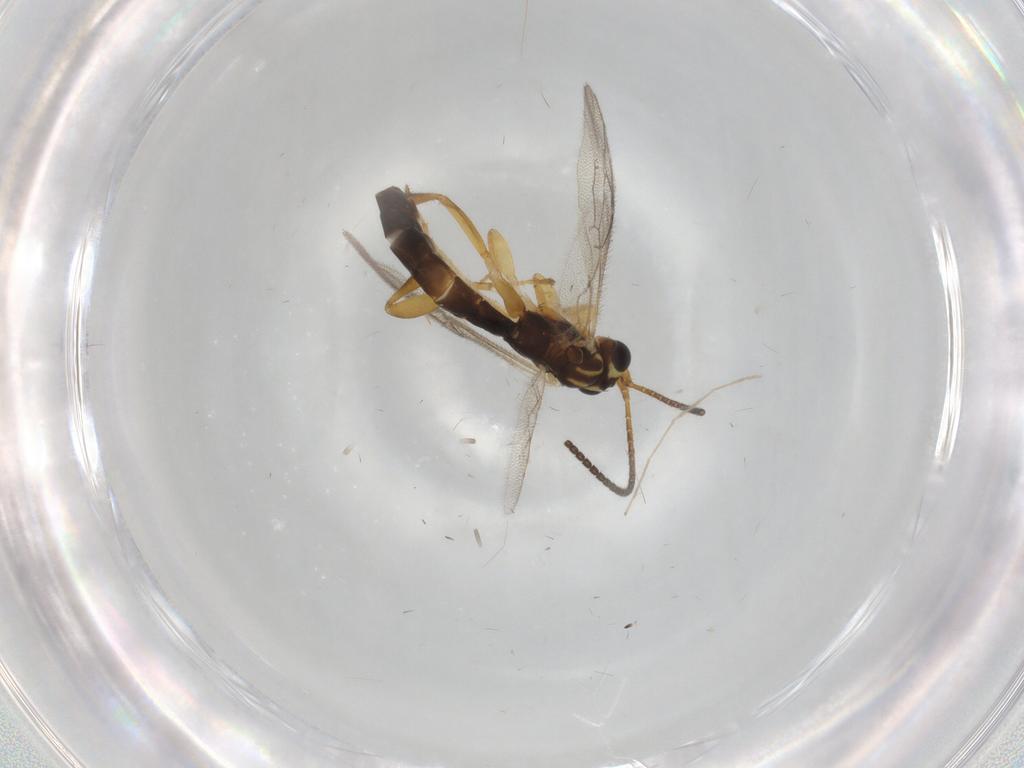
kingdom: Animalia
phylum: Arthropoda
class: Insecta
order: Hymenoptera
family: Ichneumonidae
